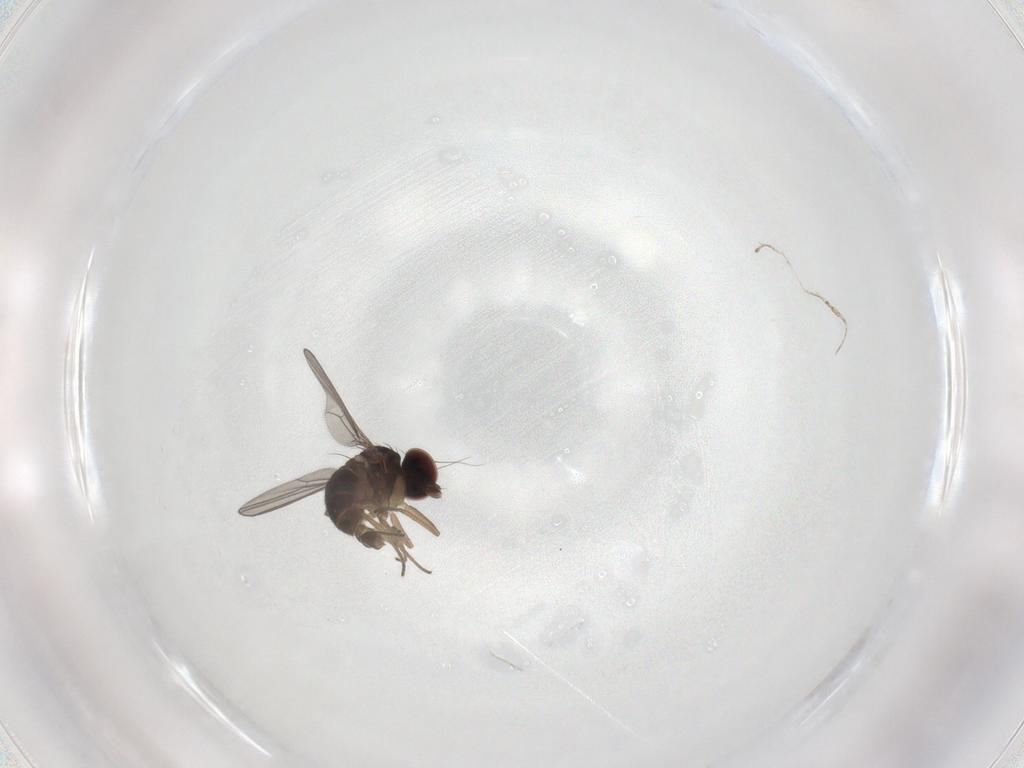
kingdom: Animalia
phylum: Arthropoda
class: Insecta
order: Diptera
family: Dolichopodidae
